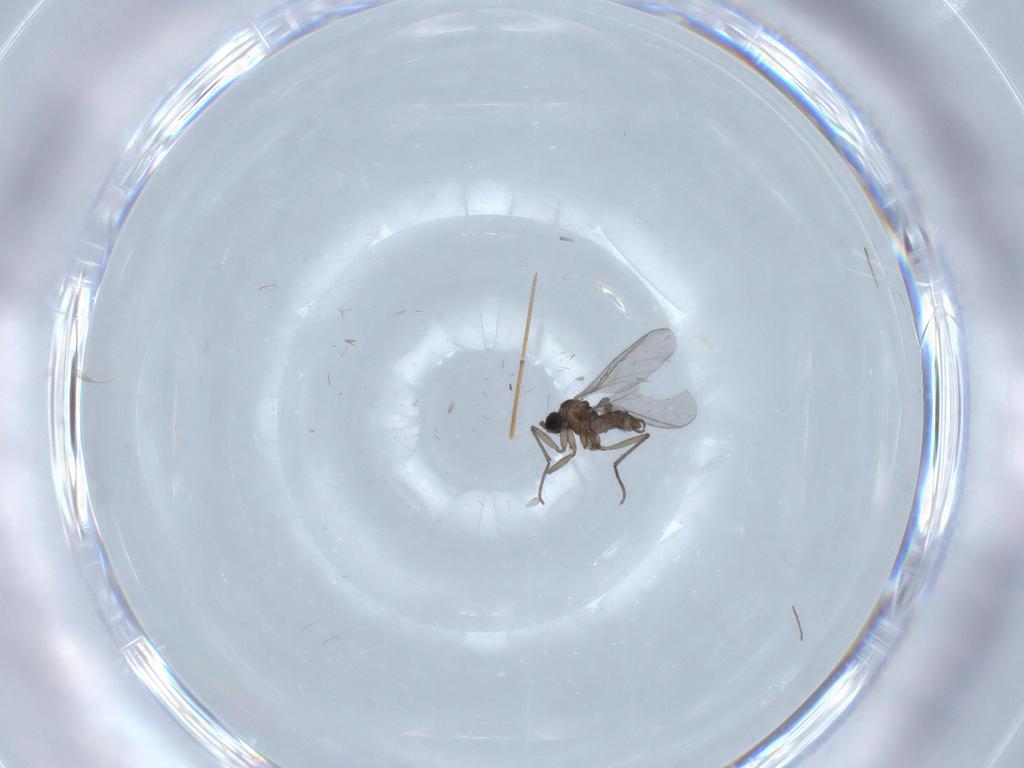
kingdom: Animalia
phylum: Arthropoda
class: Insecta
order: Diptera
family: Sciaridae
